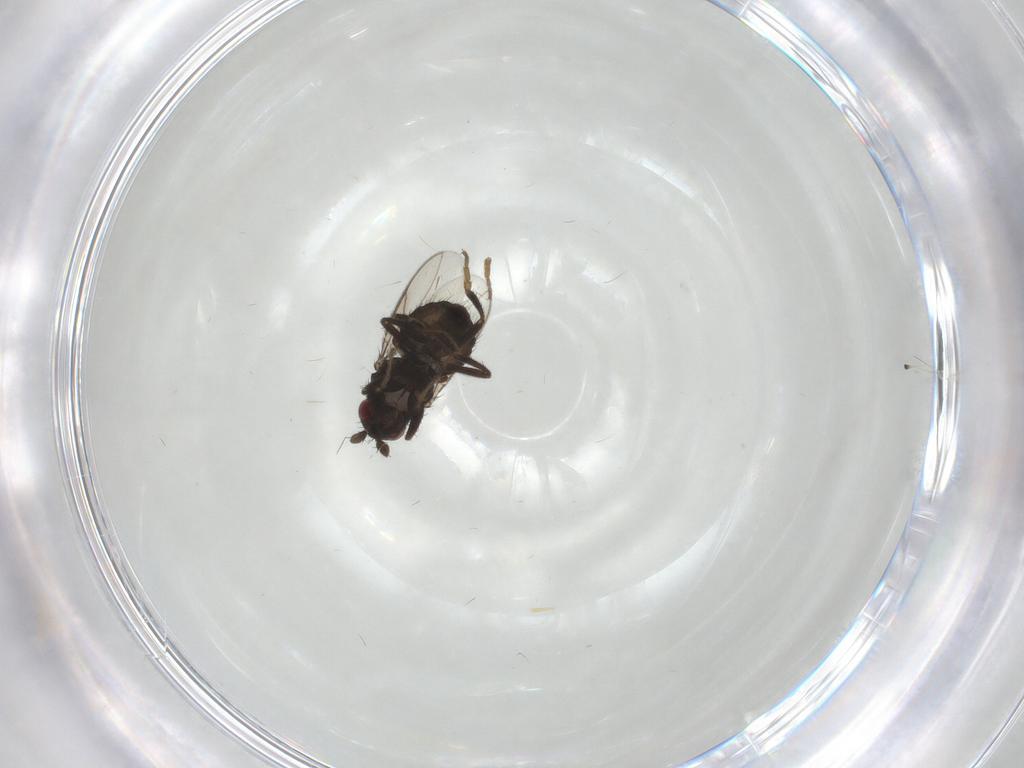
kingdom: Animalia
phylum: Arthropoda
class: Insecta
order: Diptera
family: Sphaeroceridae
